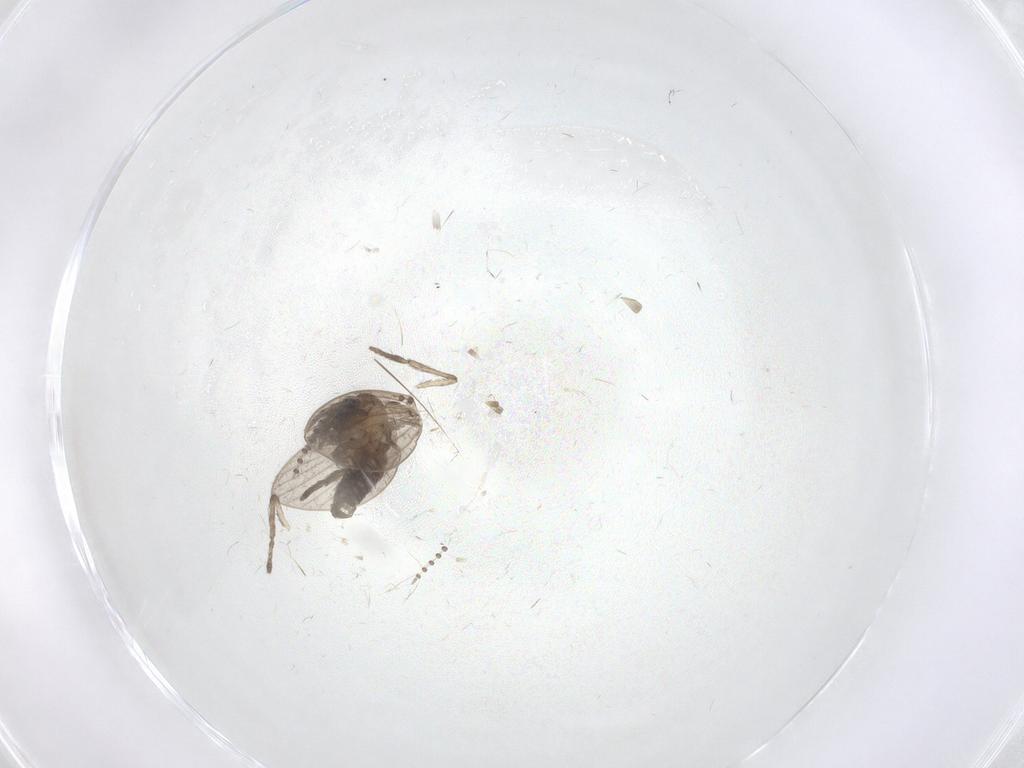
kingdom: Animalia
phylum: Arthropoda
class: Insecta
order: Diptera
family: Psychodidae
